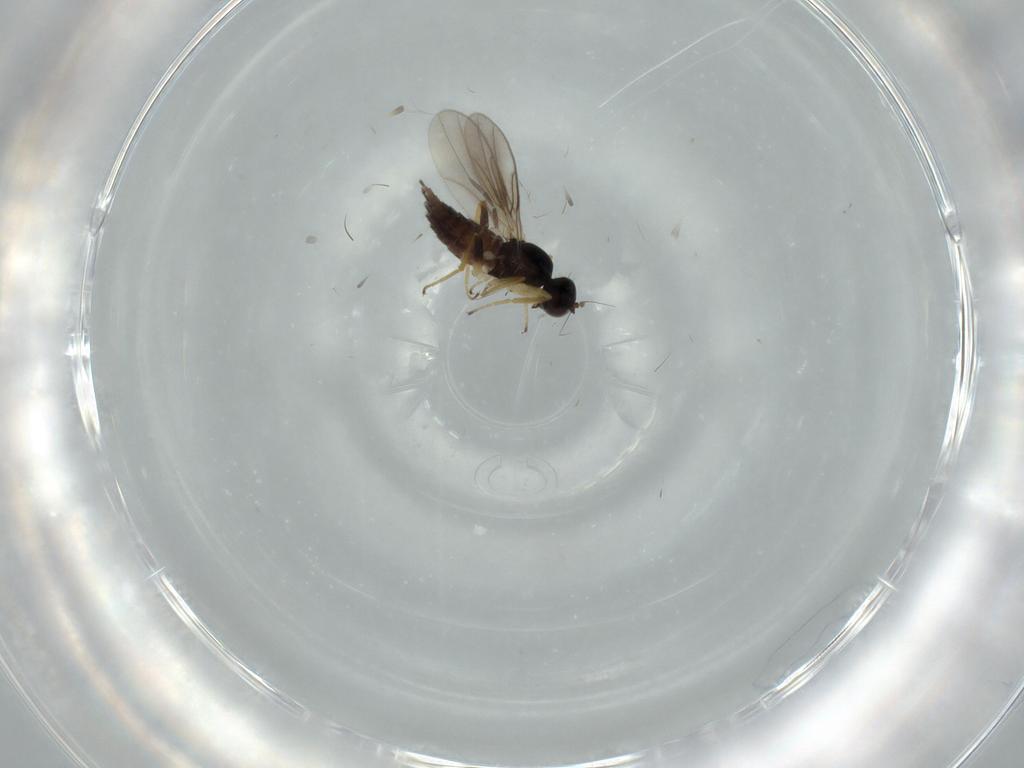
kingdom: Animalia
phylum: Arthropoda
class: Insecta
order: Diptera
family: Hybotidae
